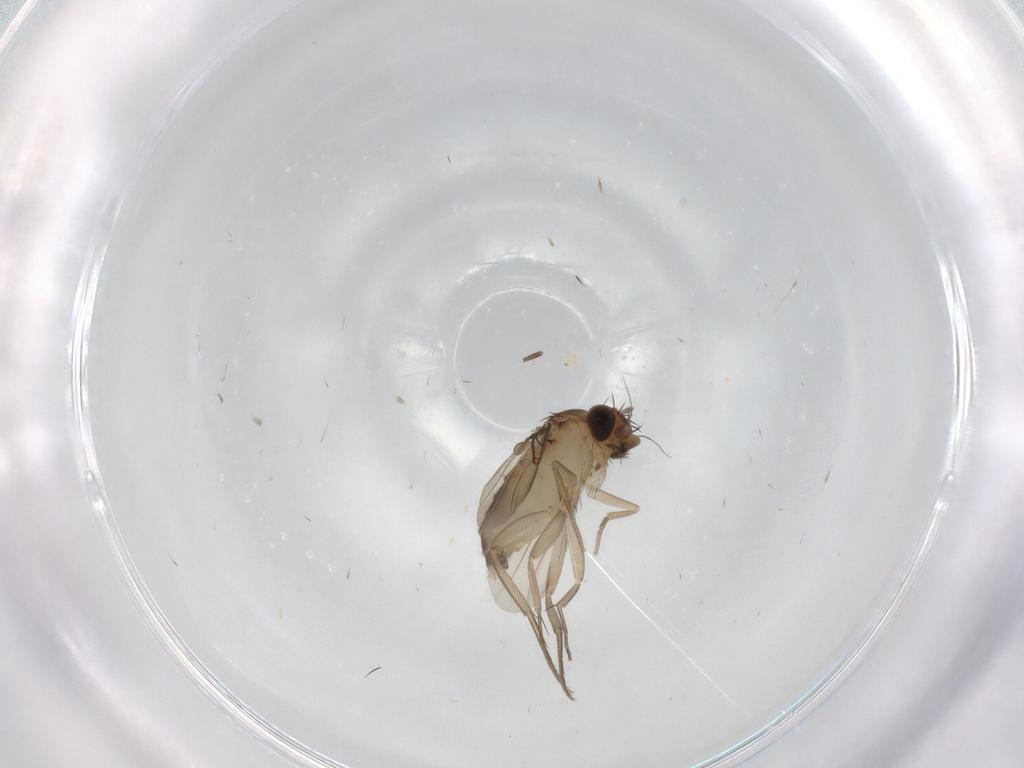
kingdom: Animalia
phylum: Arthropoda
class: Insecta
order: Diptera
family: Phoridae
